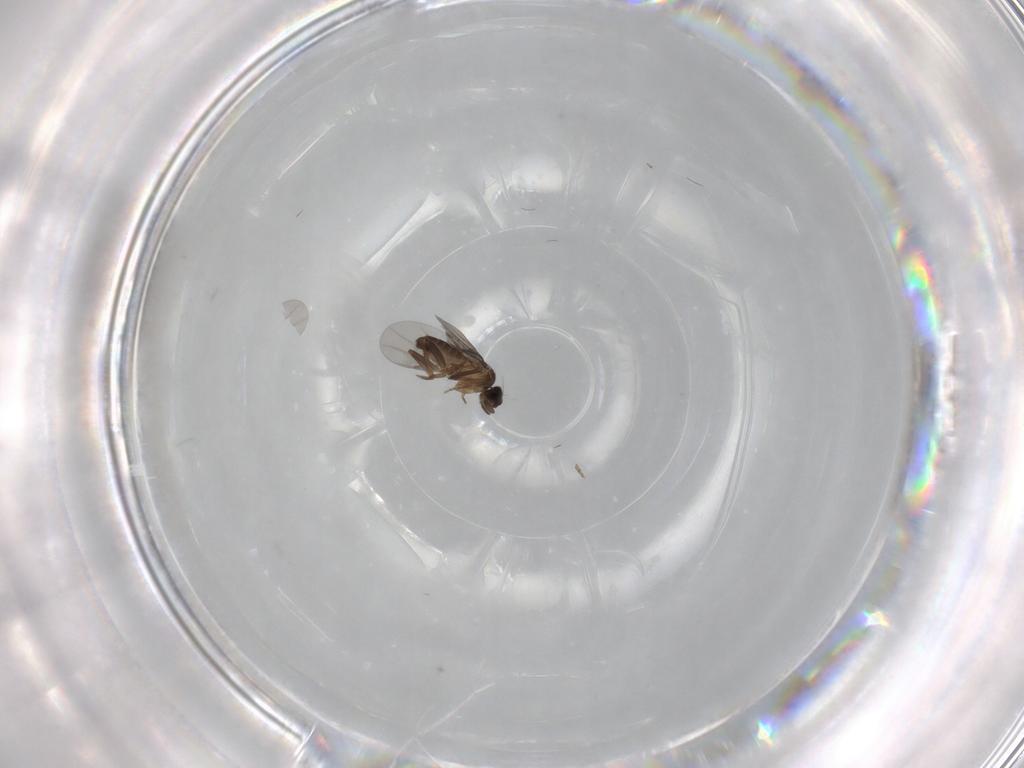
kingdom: Animalia
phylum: Arthropoda
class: Insecta
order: Diptera
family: Tabanidae
